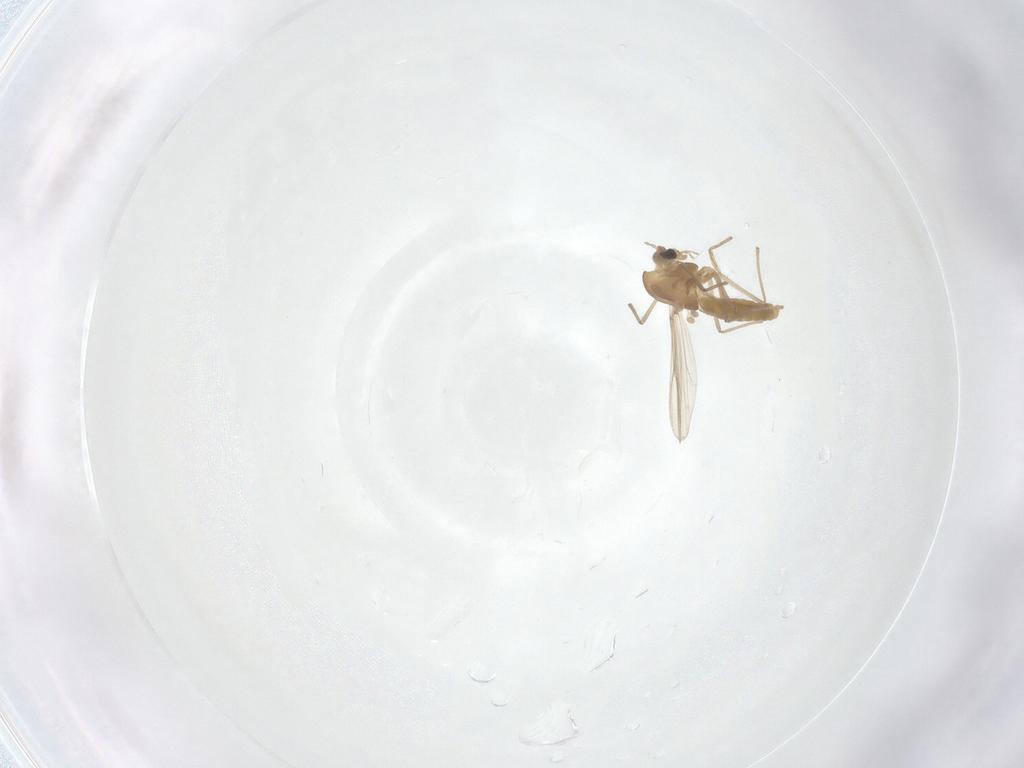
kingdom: Animalia
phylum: Arthropoda
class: Insecta
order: Diptera
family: Chironomidae
